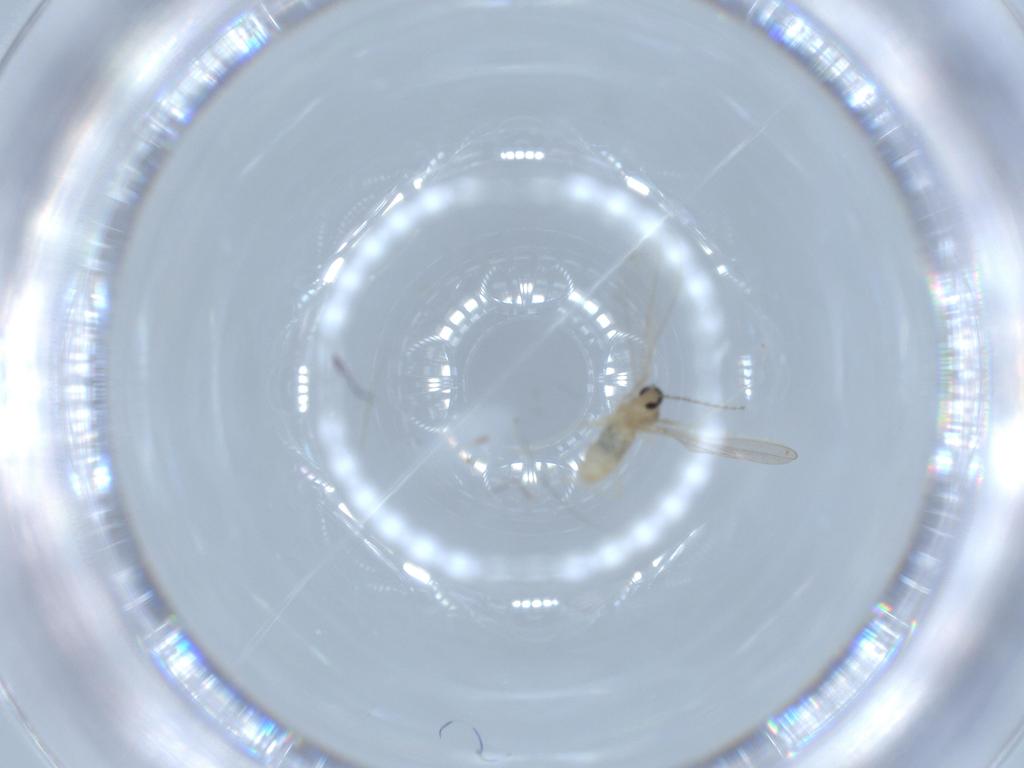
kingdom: Animalia
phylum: Arthropoda
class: Insecta
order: Diptera
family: Cecidomyiidae
